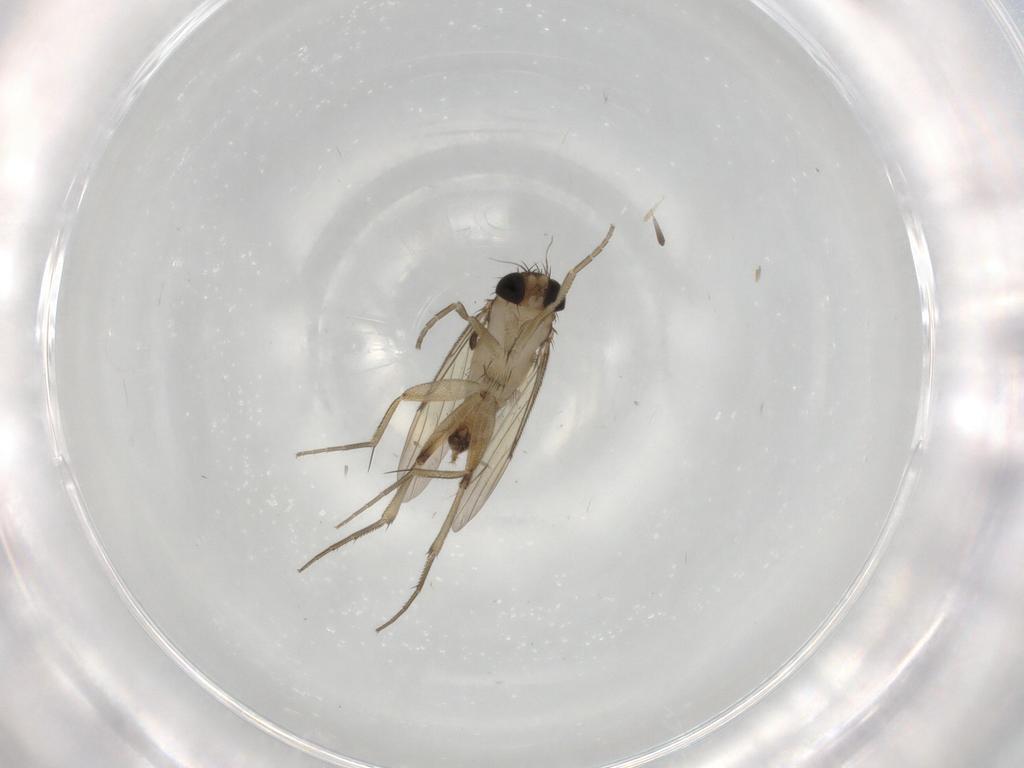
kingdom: Animalia
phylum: Arthropoda
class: Insecta
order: Diptera
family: Phoridae
